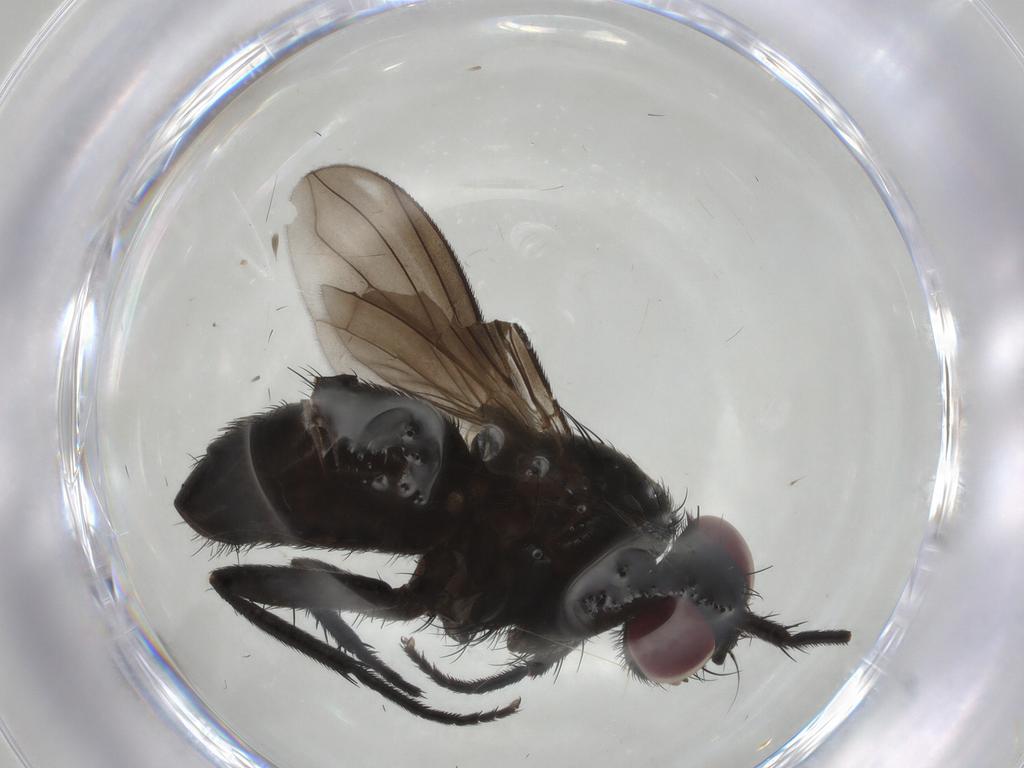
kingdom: Animalia
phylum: Arthropoda
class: Insecta
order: Diptera
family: Calliphoridae
